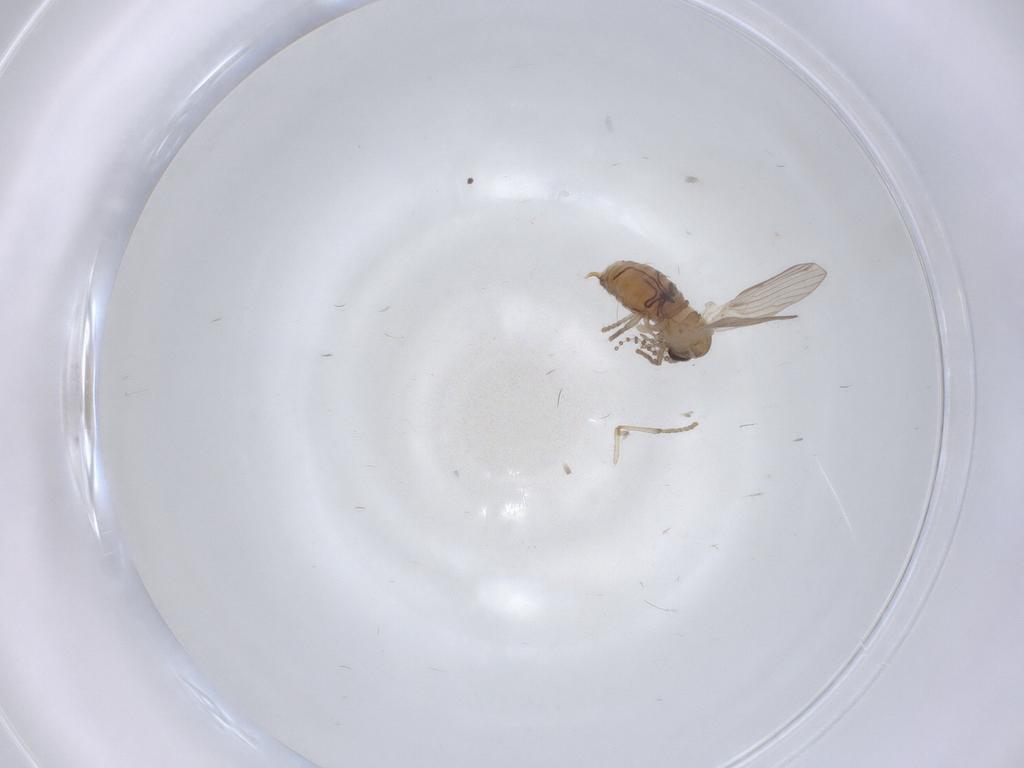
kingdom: Animalia
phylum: Arthropoda
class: Insecta
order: Diptera
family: Psychodidae
